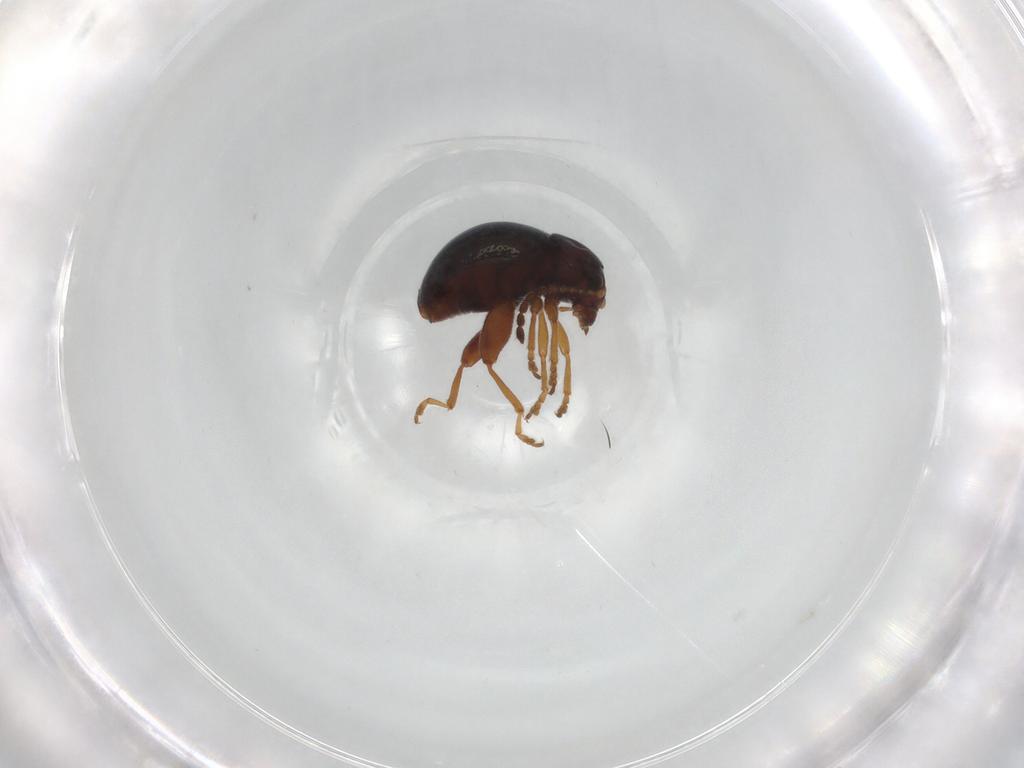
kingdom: Animalia
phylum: Arthropoda
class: Insecta
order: Coleoptera
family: Chrysomelidae
